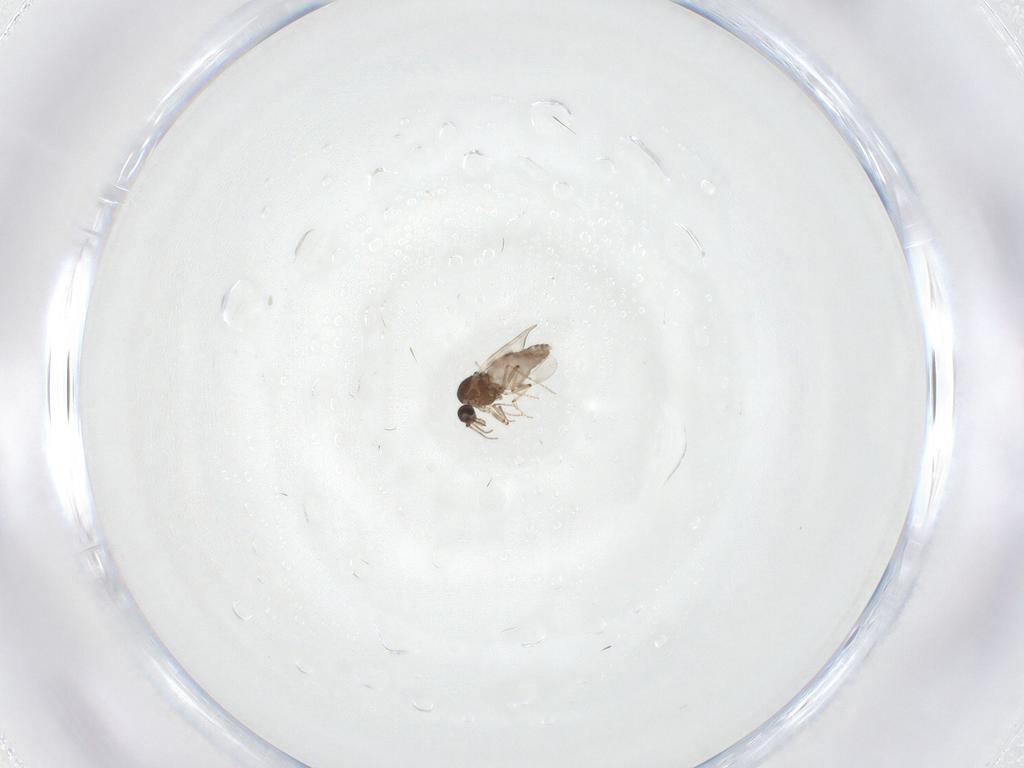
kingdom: Animalia
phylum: Arthropoda
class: Insecta
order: Diptera
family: Limoniidae
